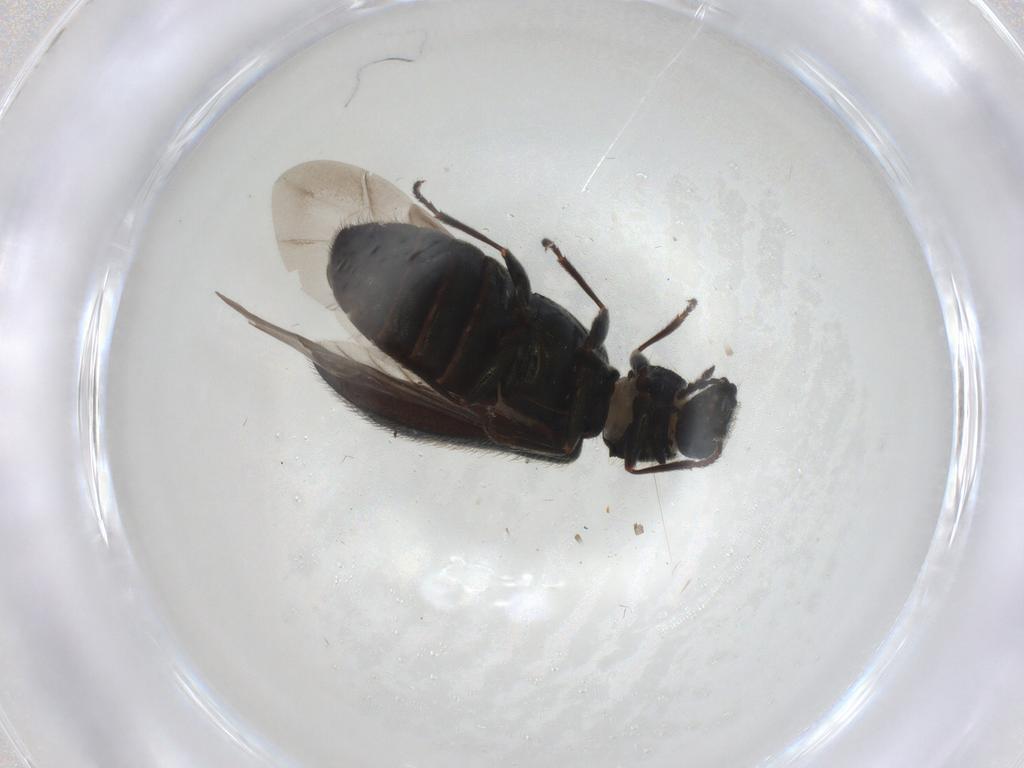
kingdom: Animalia
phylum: Arthropoda
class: Insecta
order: Coleoptera
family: Melyridae
